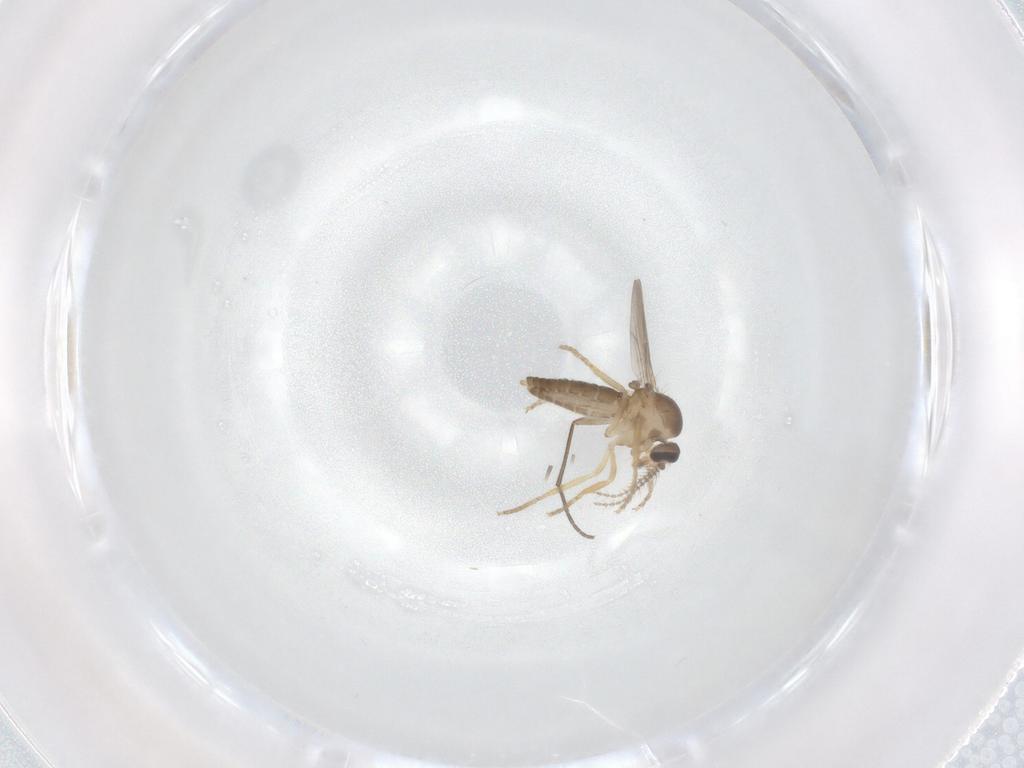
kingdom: Animalia
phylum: Arthropoda
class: Insecta
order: Diptera
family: Ceratopogonidae
